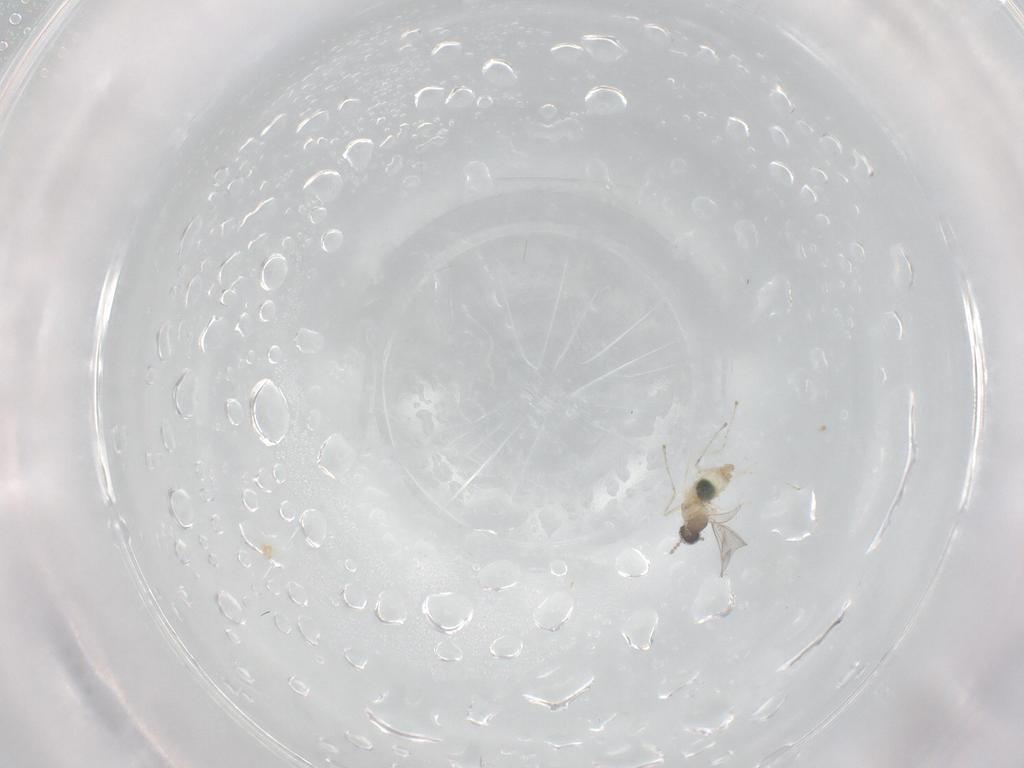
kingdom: Animalia
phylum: Arthropoda
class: Insecta
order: Diptera
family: Cecidomyiidae
